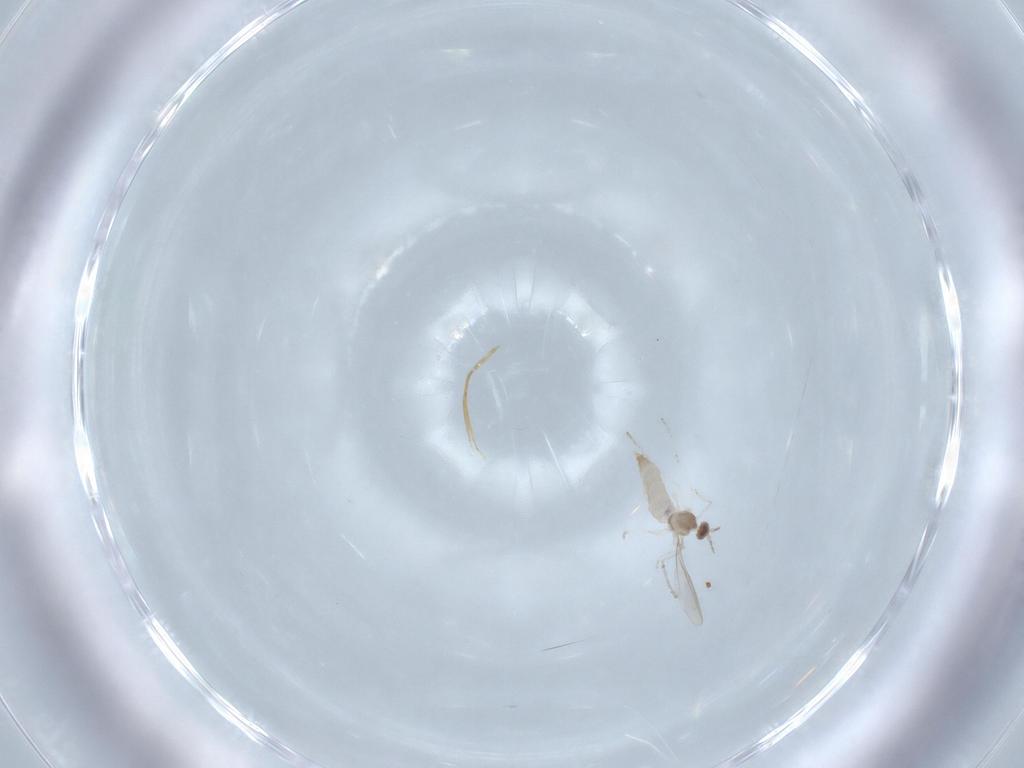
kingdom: Animalia
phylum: Arthropoda
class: Insecta
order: Diptera
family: Cecidomyiidae
